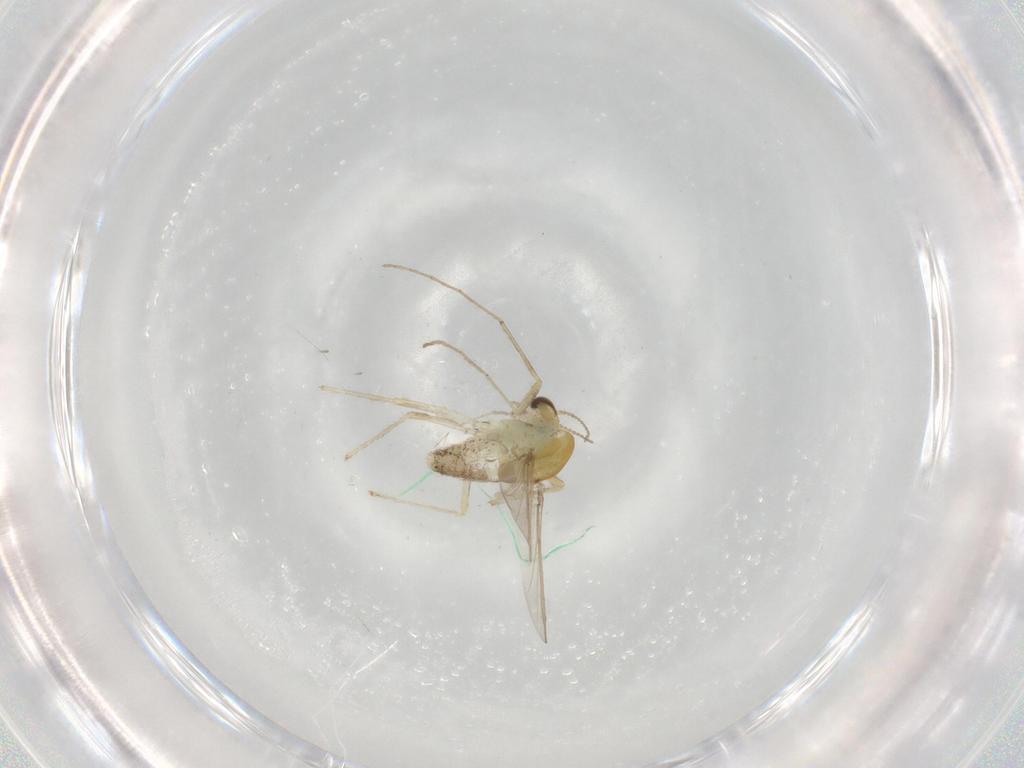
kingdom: Animalia
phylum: Arthropoda
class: Insecta
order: Diptera
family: Chironomidae
